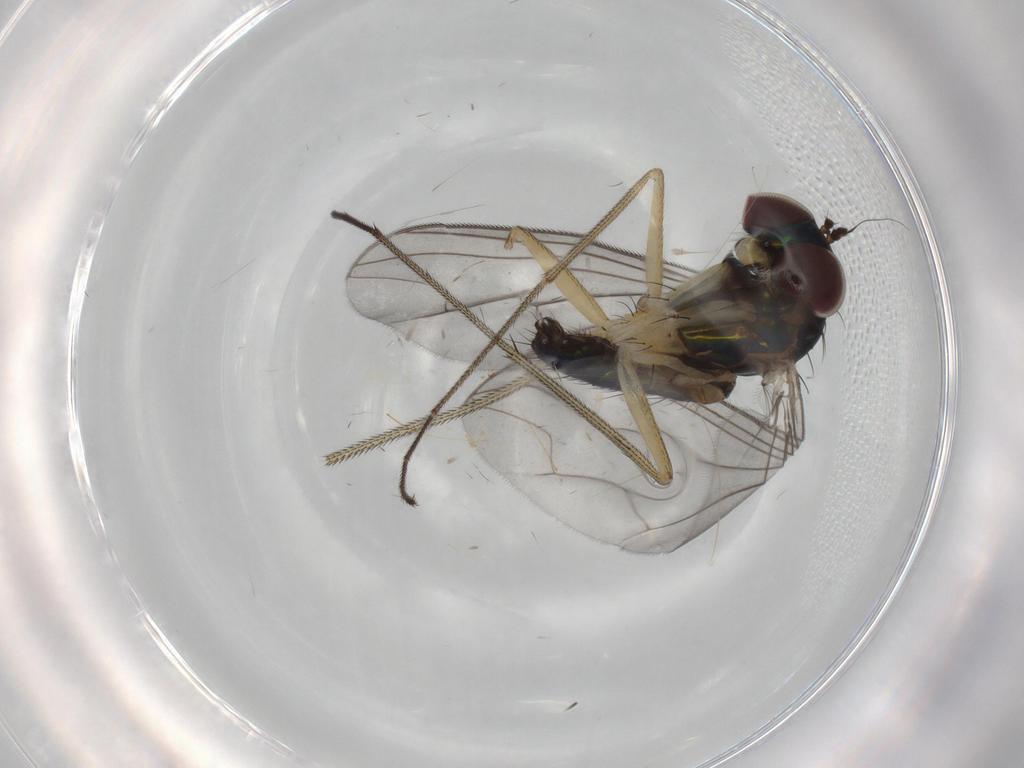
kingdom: Animalia
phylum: Arthropoda
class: Insecta
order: Diptera
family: Dolichopodidae
